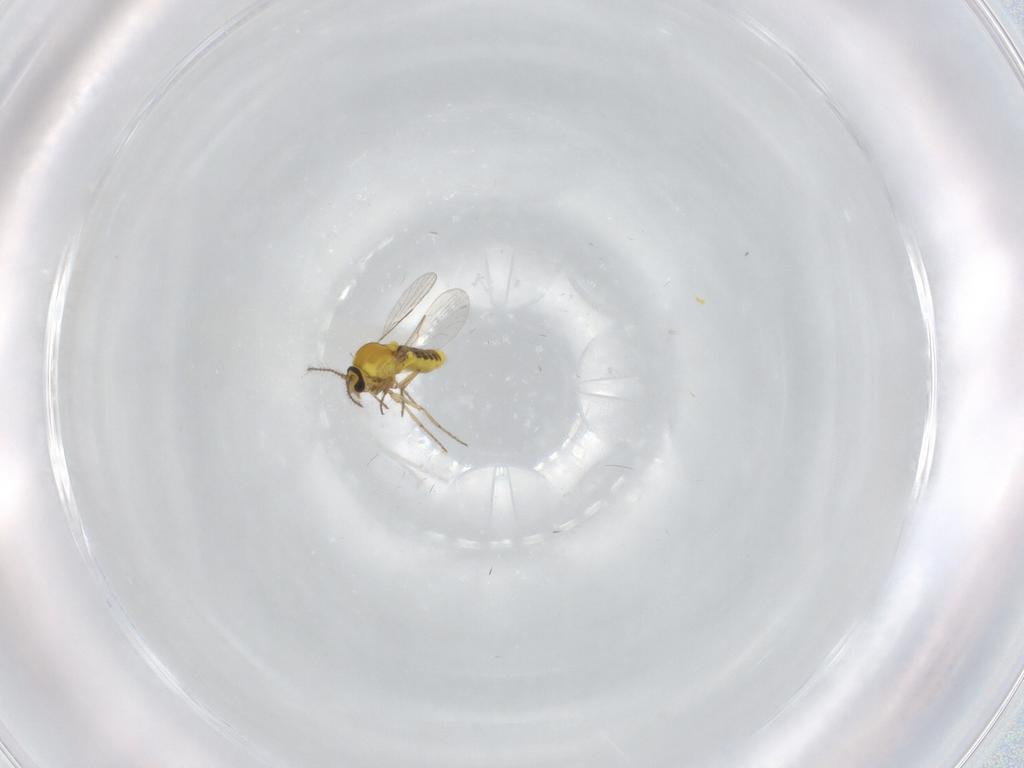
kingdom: Animalia
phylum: Arthropoda
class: Insecta
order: Diptera
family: Ceratopogonidae
